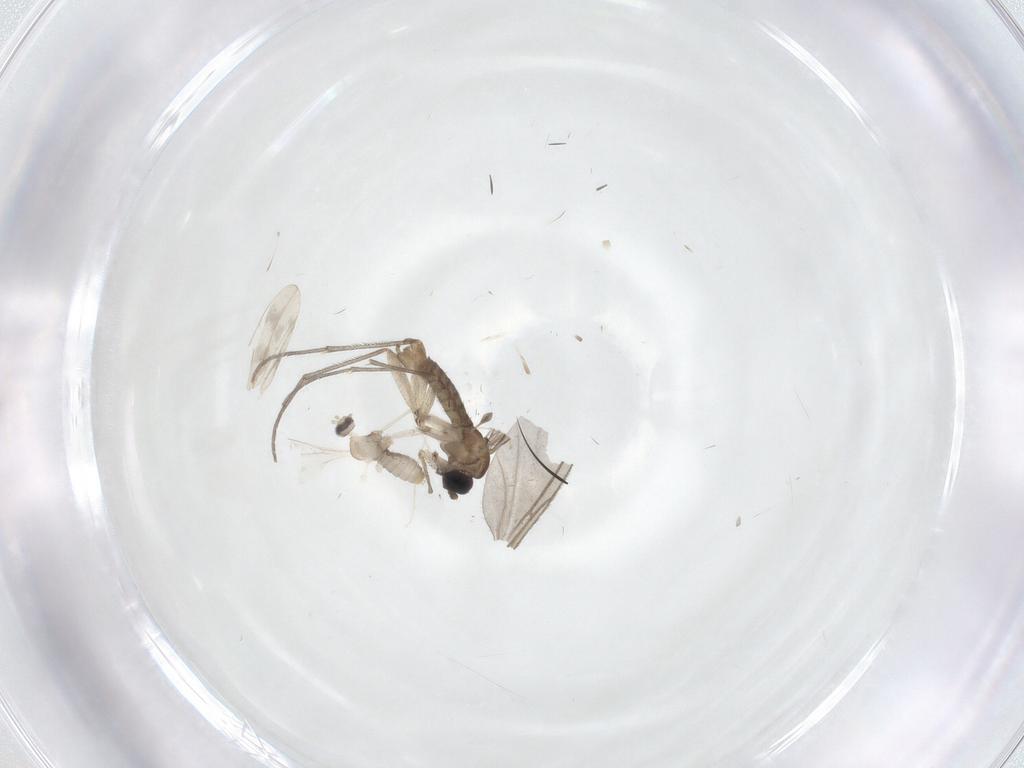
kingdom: Animalia
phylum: Arthropoda
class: Insecta
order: Diptera
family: Sciaridae
